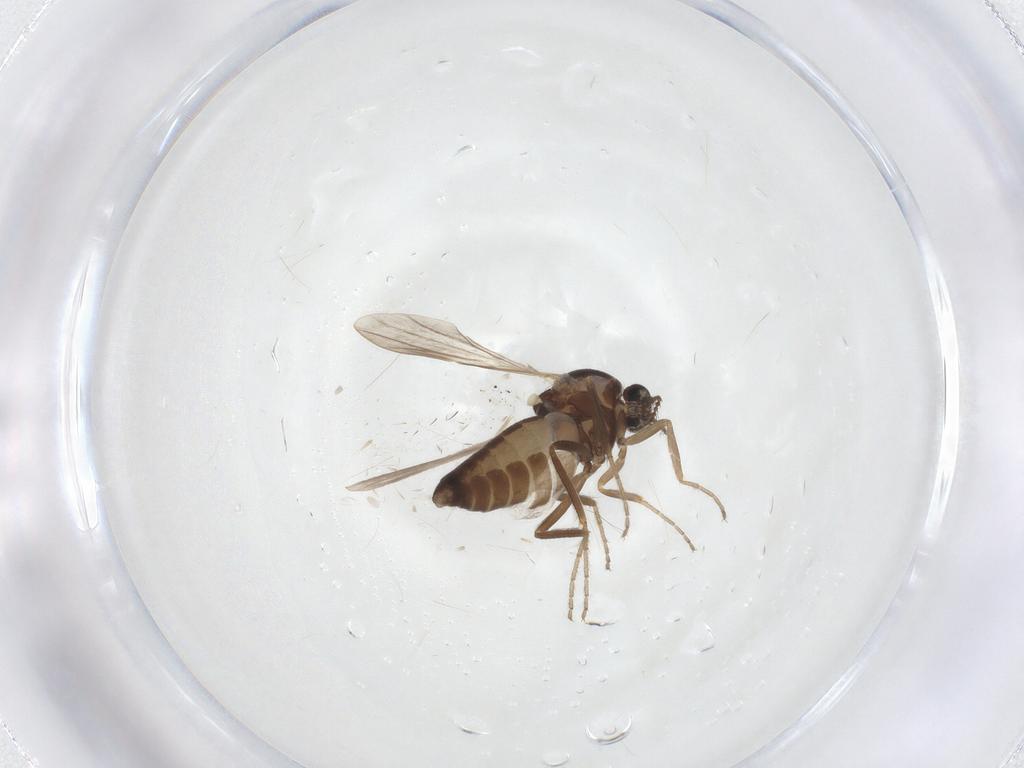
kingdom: Animalia
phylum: Arthropoda
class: Insecta
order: Diptera
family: Ceratopogonidae
